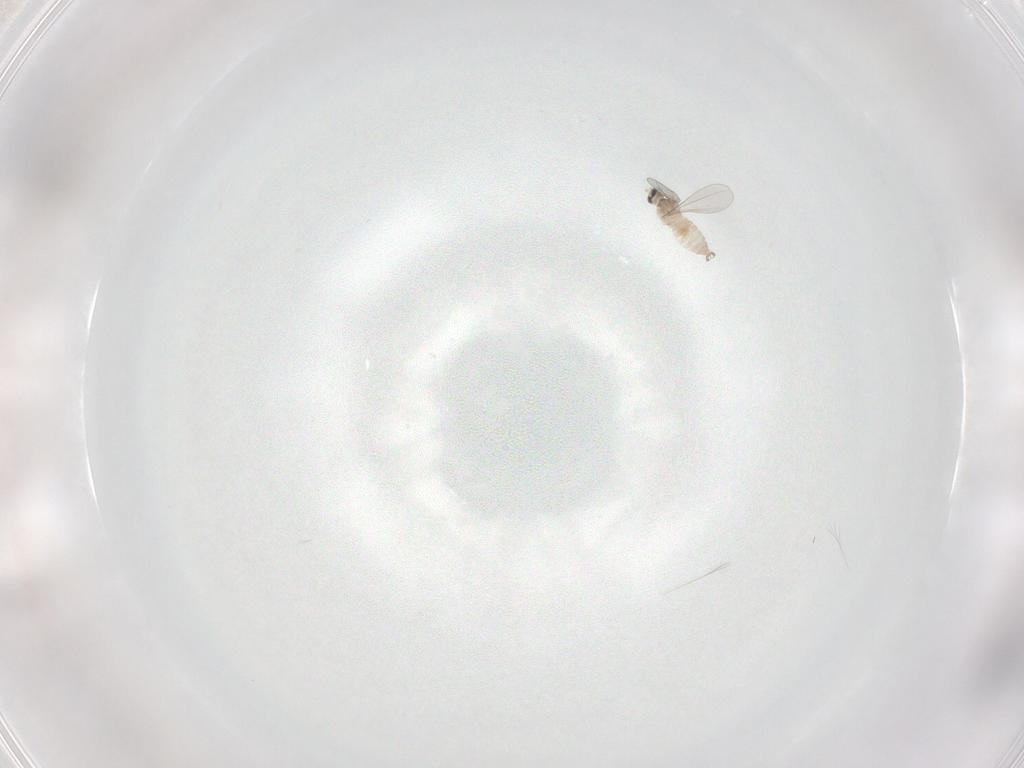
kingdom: Animalia
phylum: Arthropoda
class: Insecta
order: Diptera
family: Cecidomyiidae
